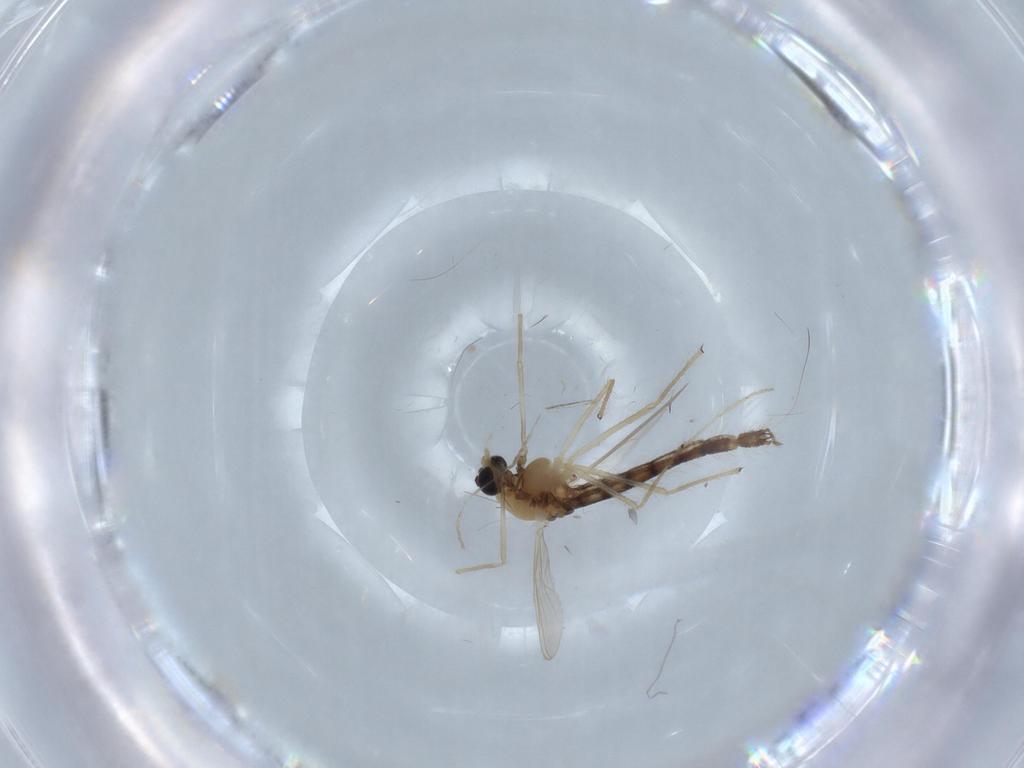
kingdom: Animalia
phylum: Arthropoda
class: Insecta
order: Diptera
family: Chironomidae
